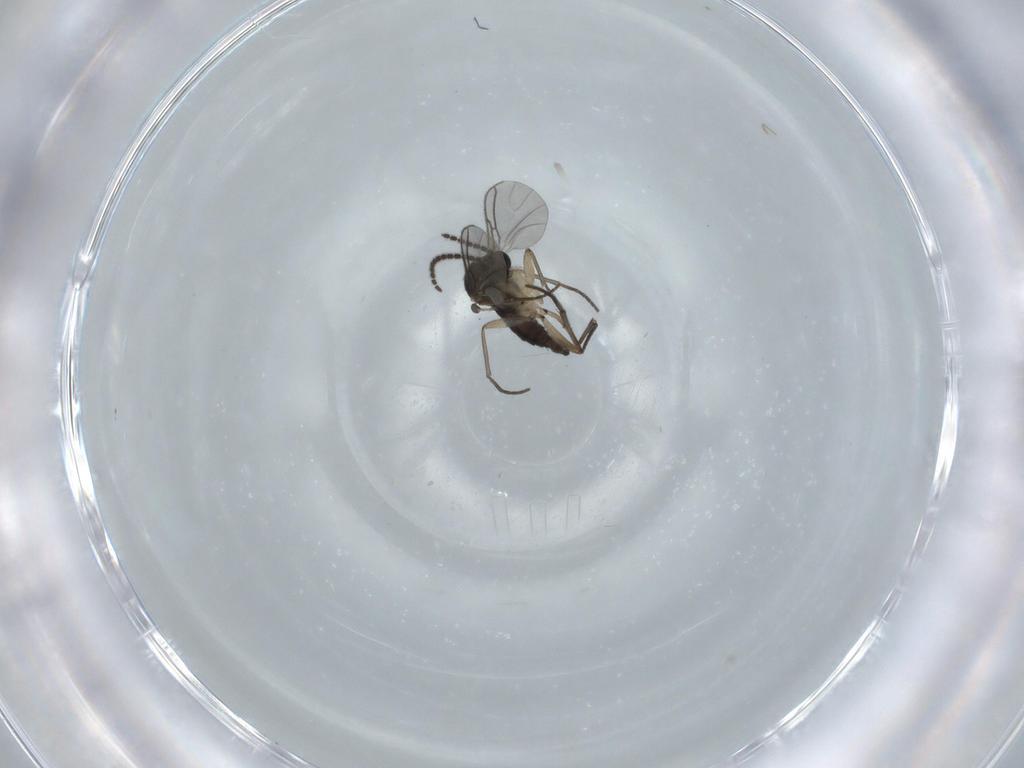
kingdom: Animalia
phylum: Arthropoda
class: Insecta
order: Diptera
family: Sciaridae
